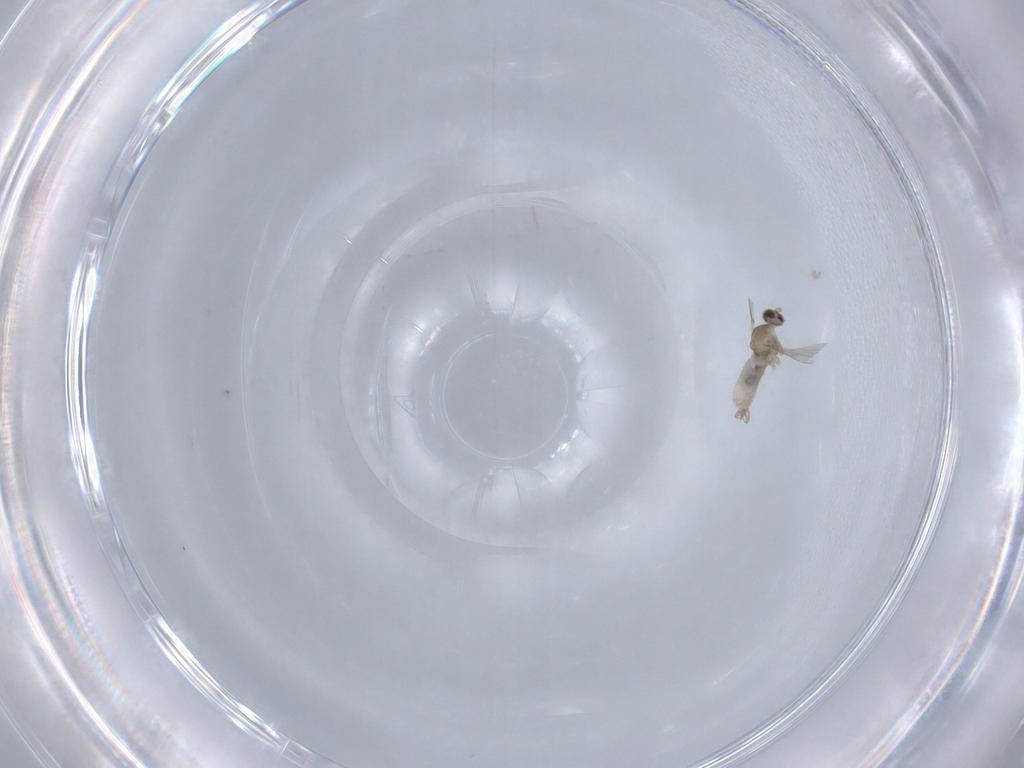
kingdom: Animalia
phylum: Arthropoda
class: Insecta
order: Diptera
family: Cecidomyiidae
